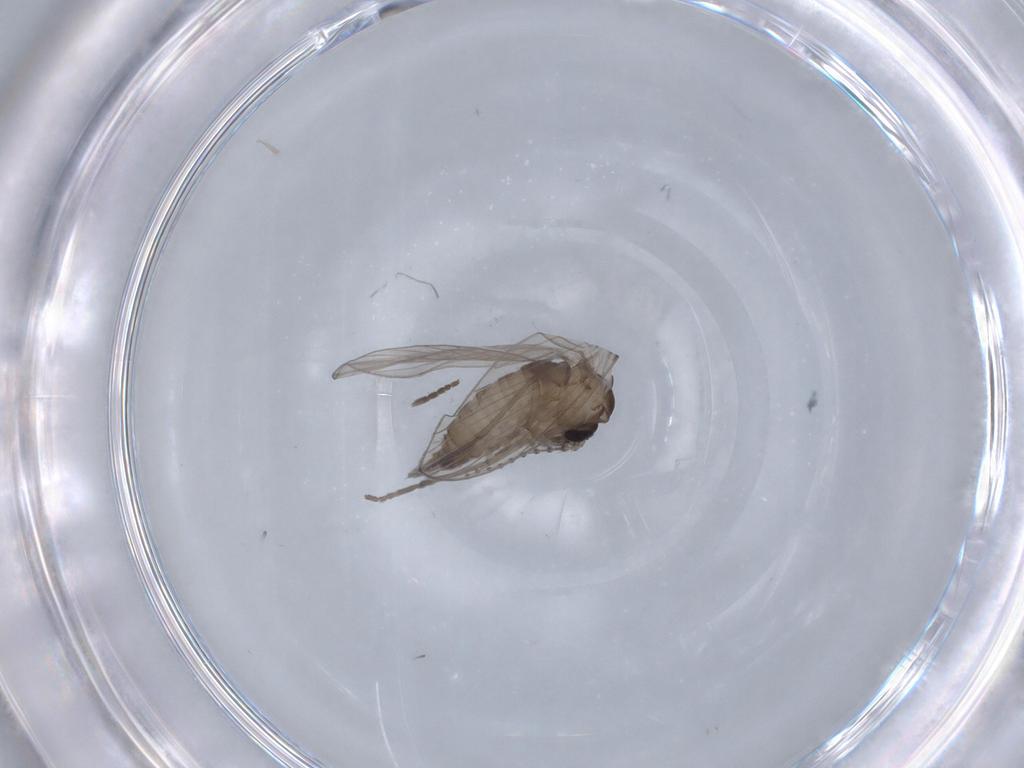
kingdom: Animalia
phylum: Arthropoda
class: Insecta
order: Diptera
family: Psychodidae
